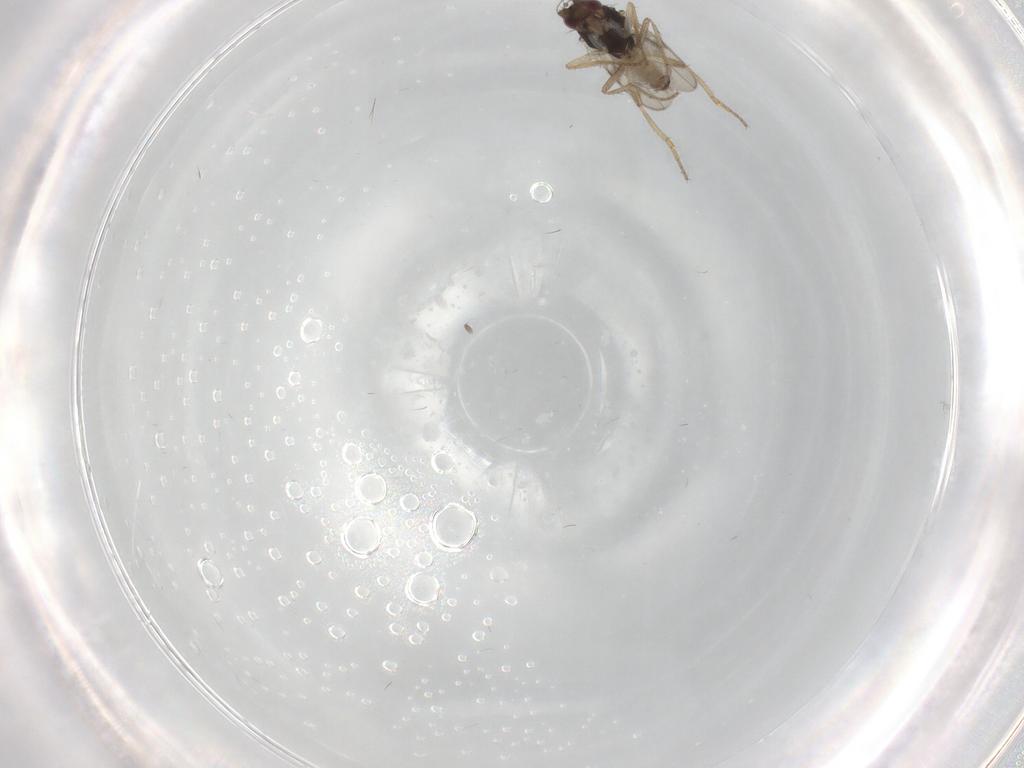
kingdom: Animalia
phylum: Arthropoda
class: Insecta
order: Diptera
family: Sphaeroceridae
